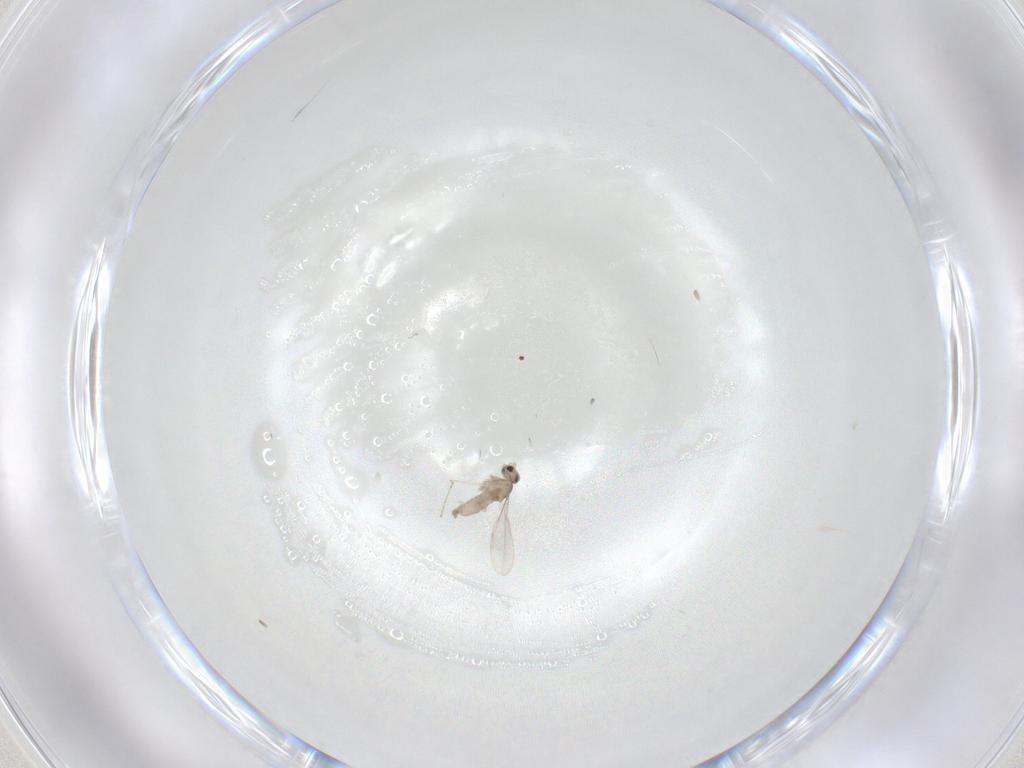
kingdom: Animalia
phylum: Arthropoda
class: Insecta
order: Diptera
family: Cecidomyiidae
